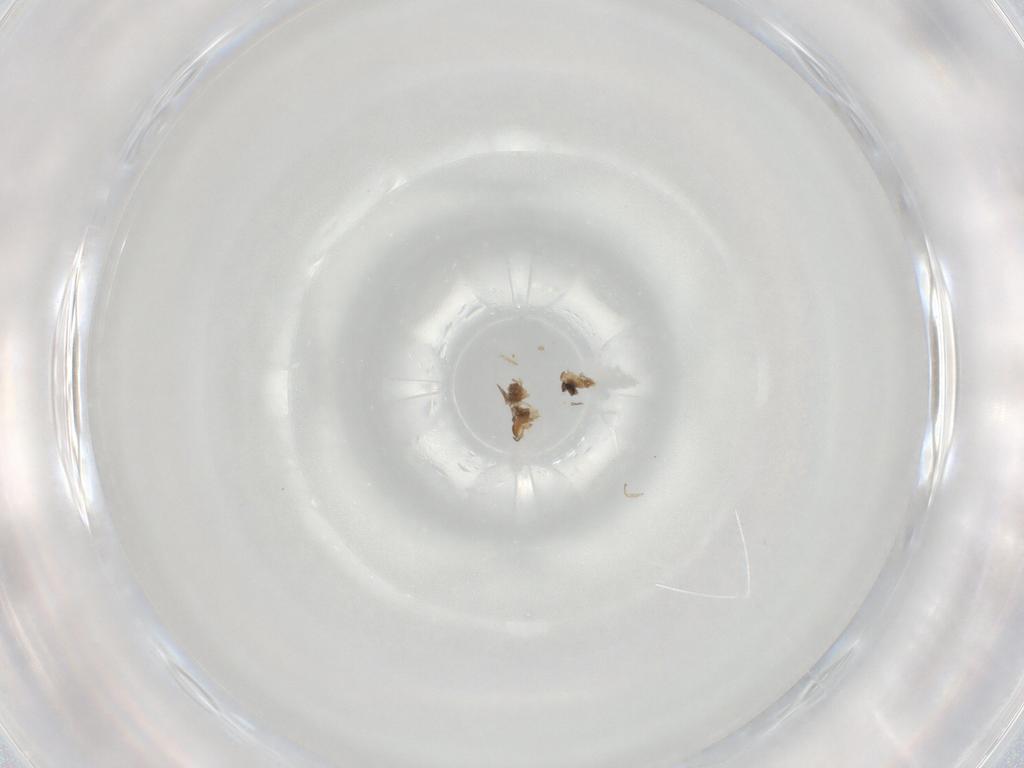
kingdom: Animalia
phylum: Arthropoda
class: Insecta
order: Diptera
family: Cecidomyiidae
